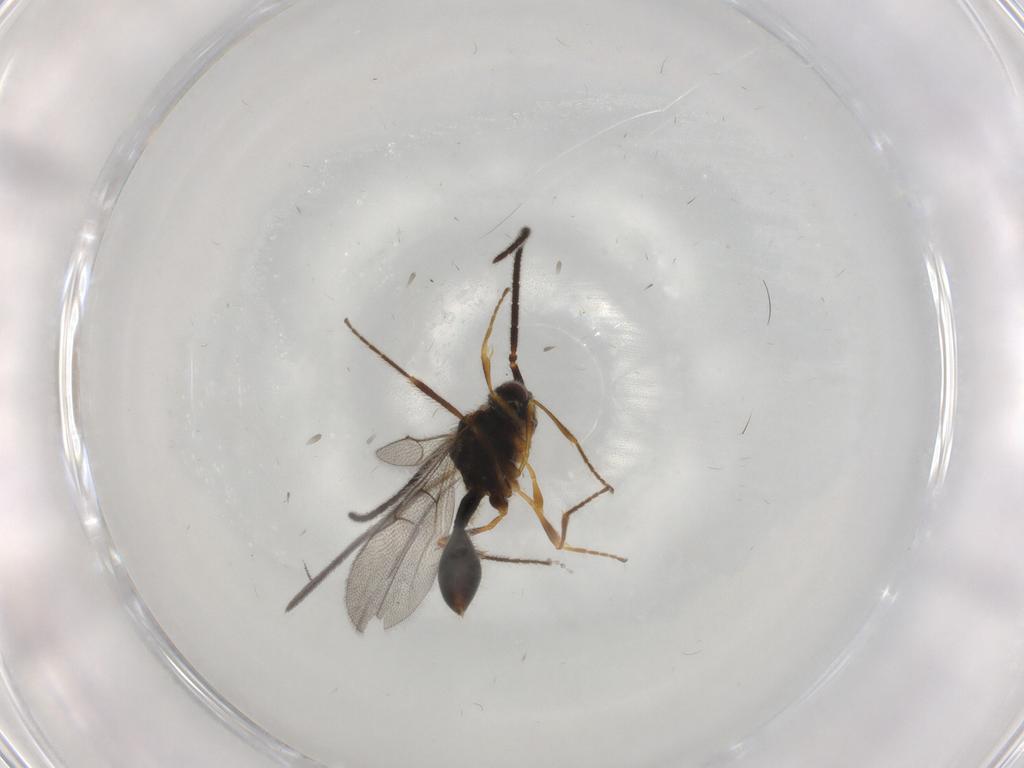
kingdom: Animalia
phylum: Arthropoda
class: Insecta
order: Hymenoptera
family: Diapriidae
